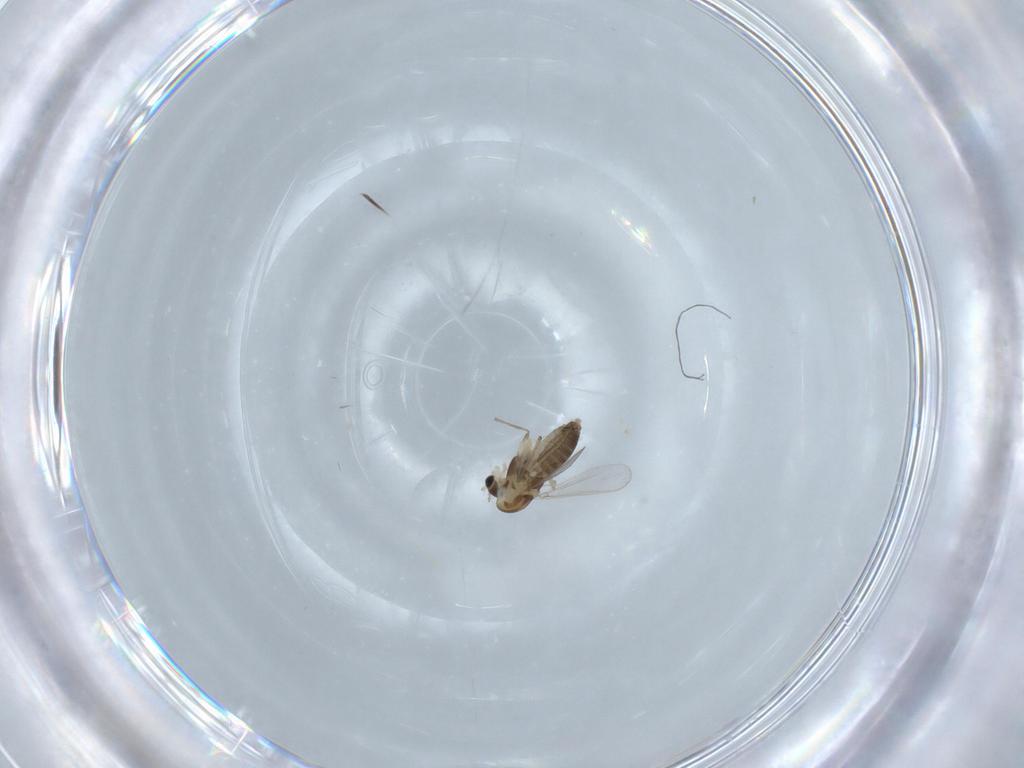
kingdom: Animalia
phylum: Arthropoda
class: Insecta
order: Diptera
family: Chironomidae
